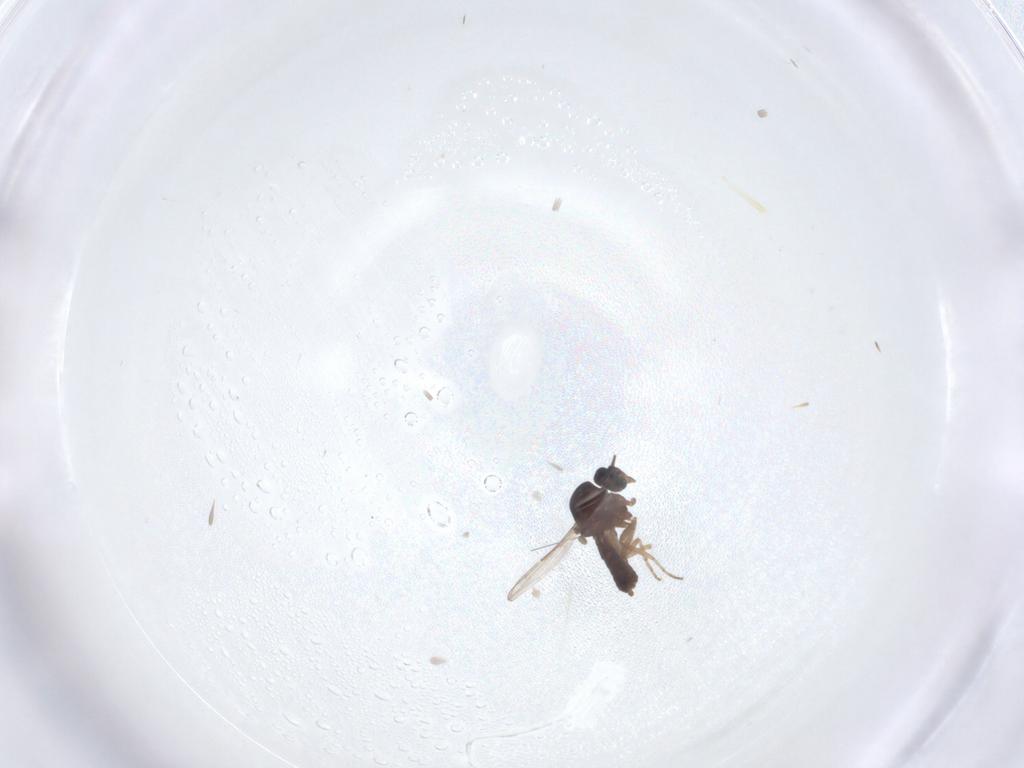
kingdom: Animalia
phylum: Arthropoda
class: Insecta
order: Diptera
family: Ceratopogonidae
